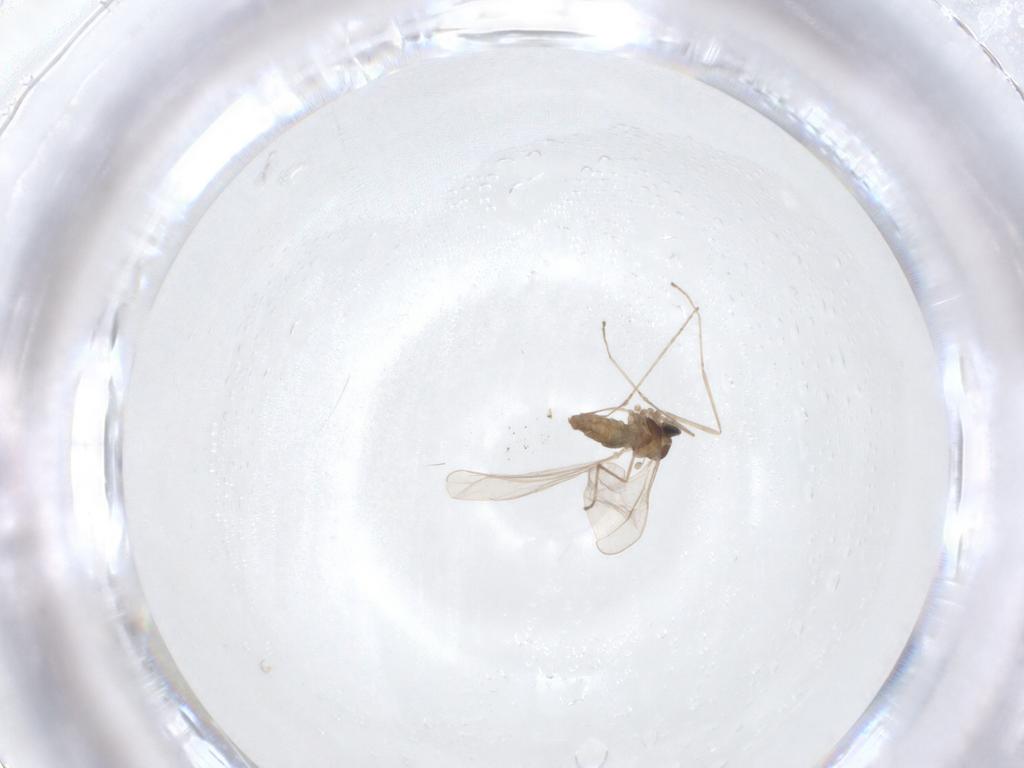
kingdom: Animalia
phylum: Arthropoda
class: Insecta
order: Diptera
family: Cecidomyiidae
